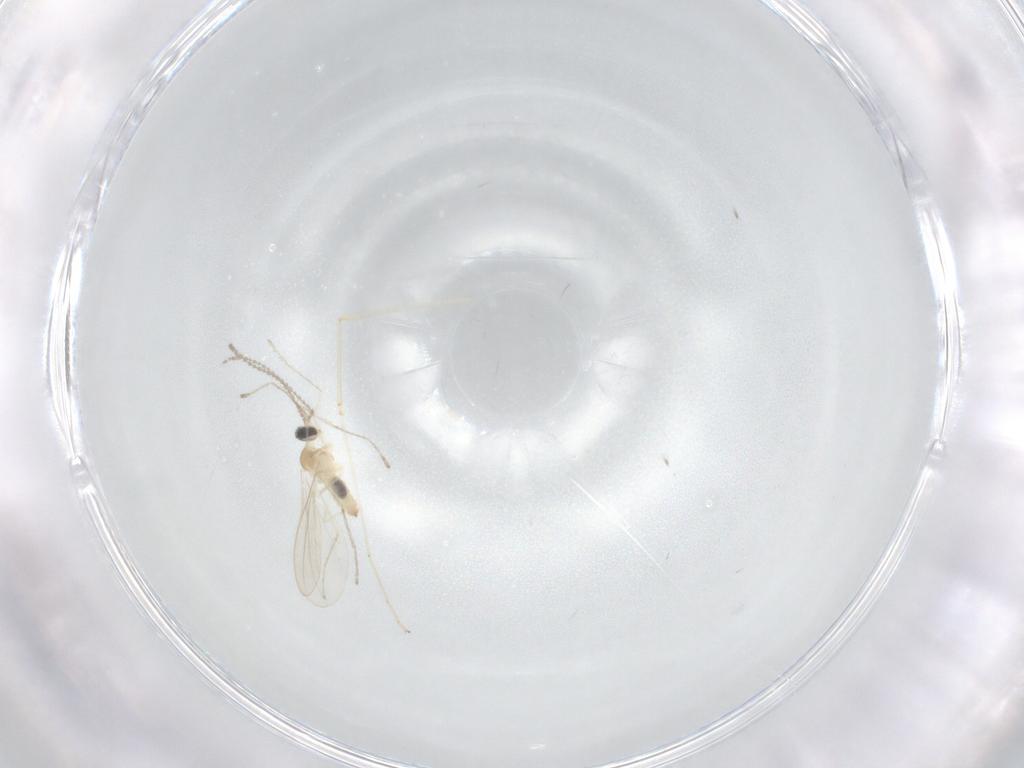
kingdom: Animalia
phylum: Arthropoda
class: Insecta
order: Diptera
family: Cecidomyiidae
